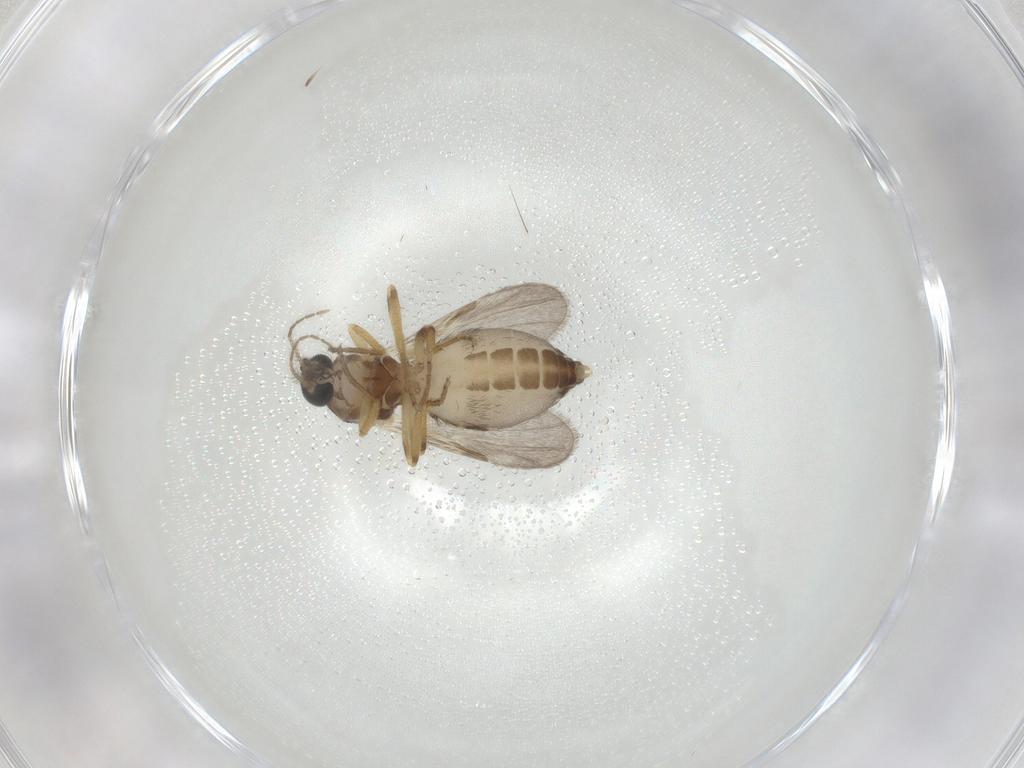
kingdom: Animalia
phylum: Arthropoda
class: Insecta
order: Diptera
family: Ceratopogonidae
